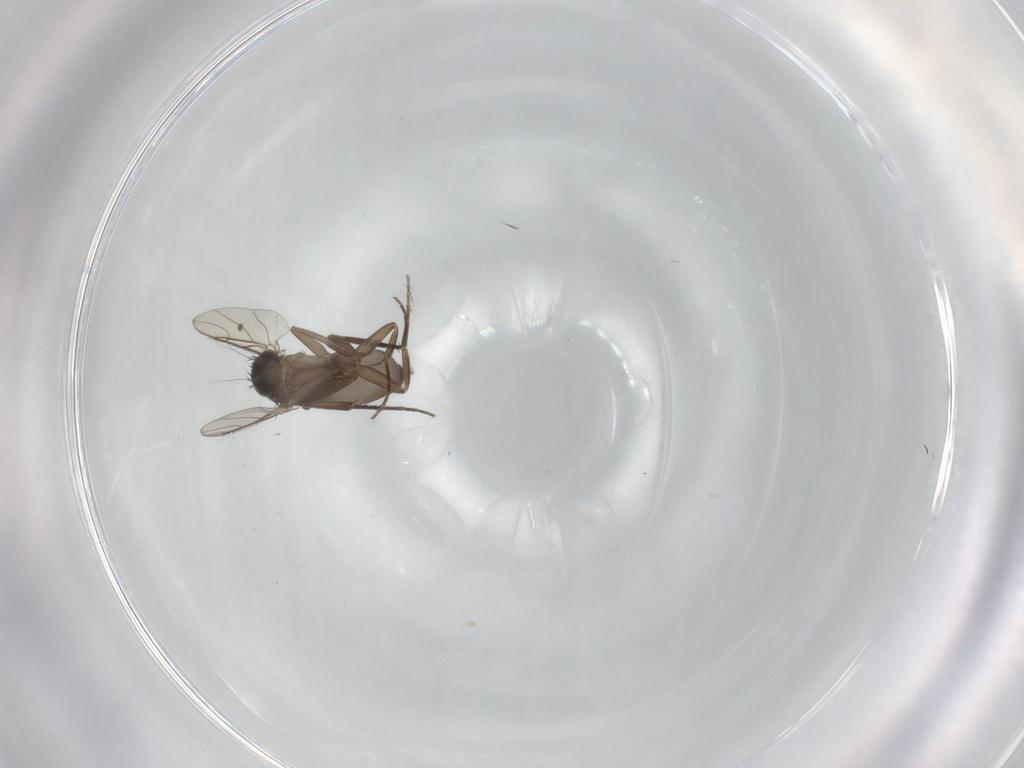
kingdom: Animalia
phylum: Arthropoda
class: Insecta
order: Diptera
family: Phoridae
